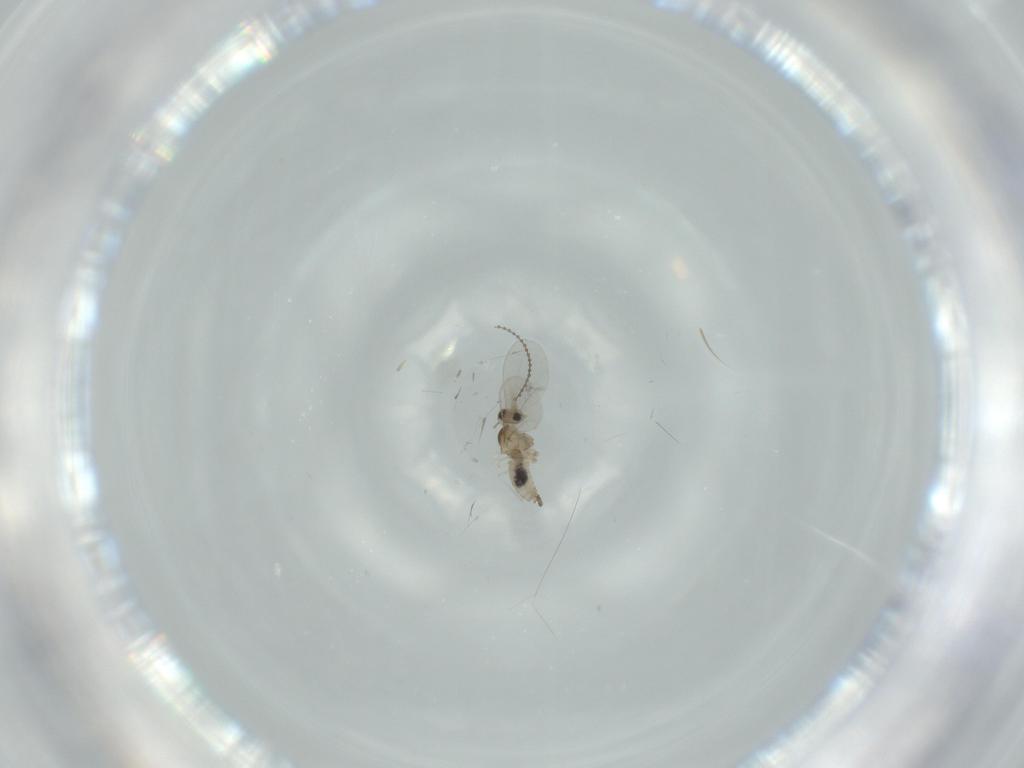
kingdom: Animalia
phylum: Arthropoda
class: Insecta
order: Diptera
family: Cecidomyiidae
